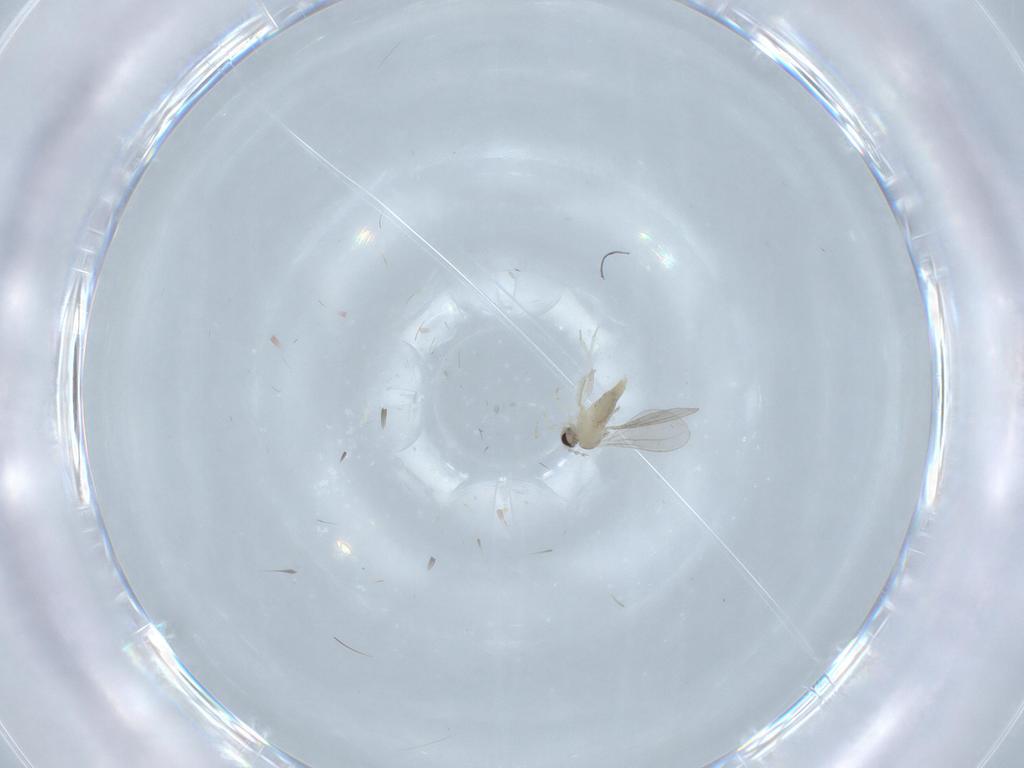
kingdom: Animalia
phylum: Arthropoda
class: Insecta
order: Diptera
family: Cecidomyiidae
